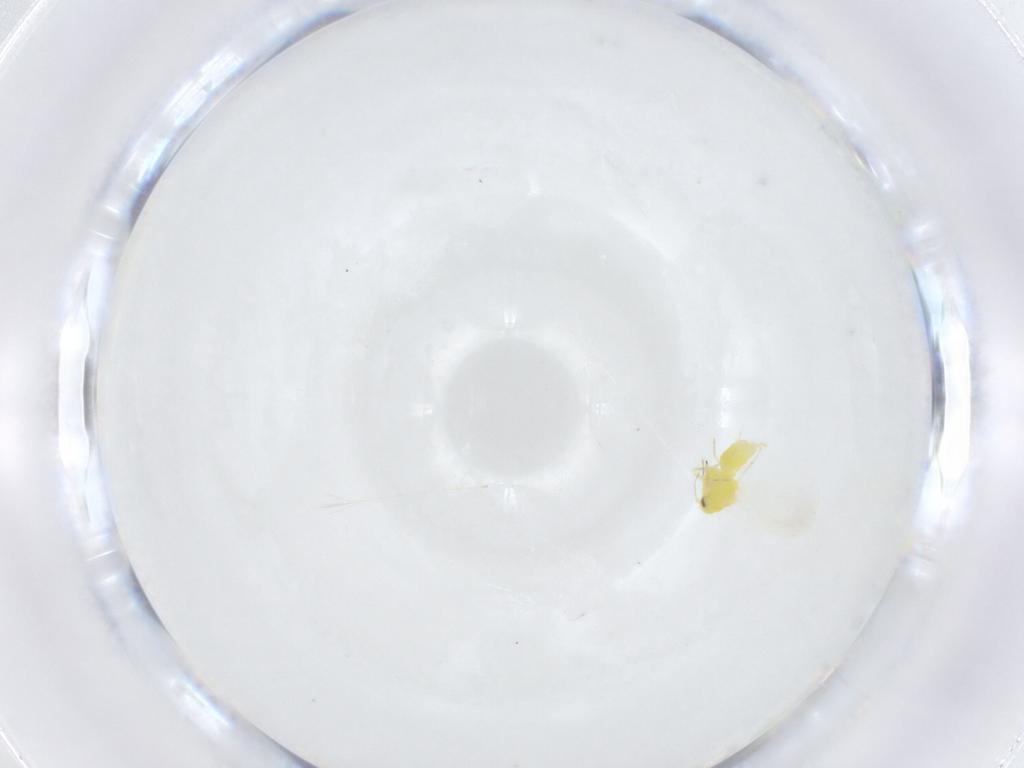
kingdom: Animalia
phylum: Arthropoda
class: Insecta
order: Hemiptera
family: Aleyrodidae
